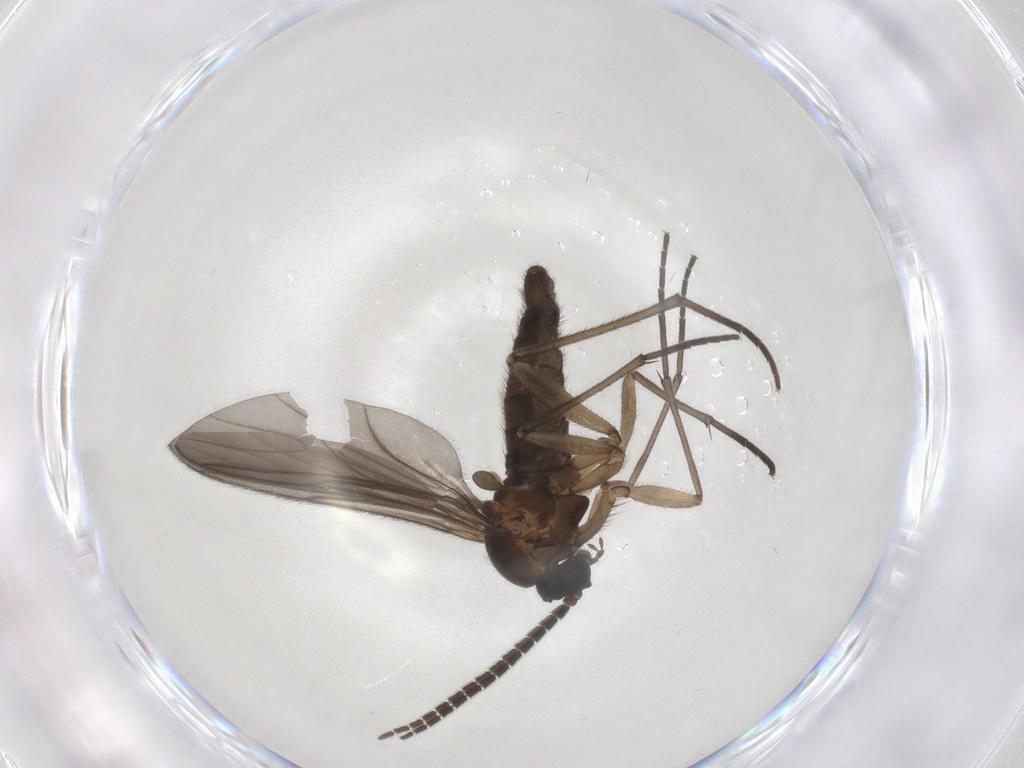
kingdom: Animalia
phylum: Arthropoda
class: Insecta
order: Diptera
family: Sciaridae
